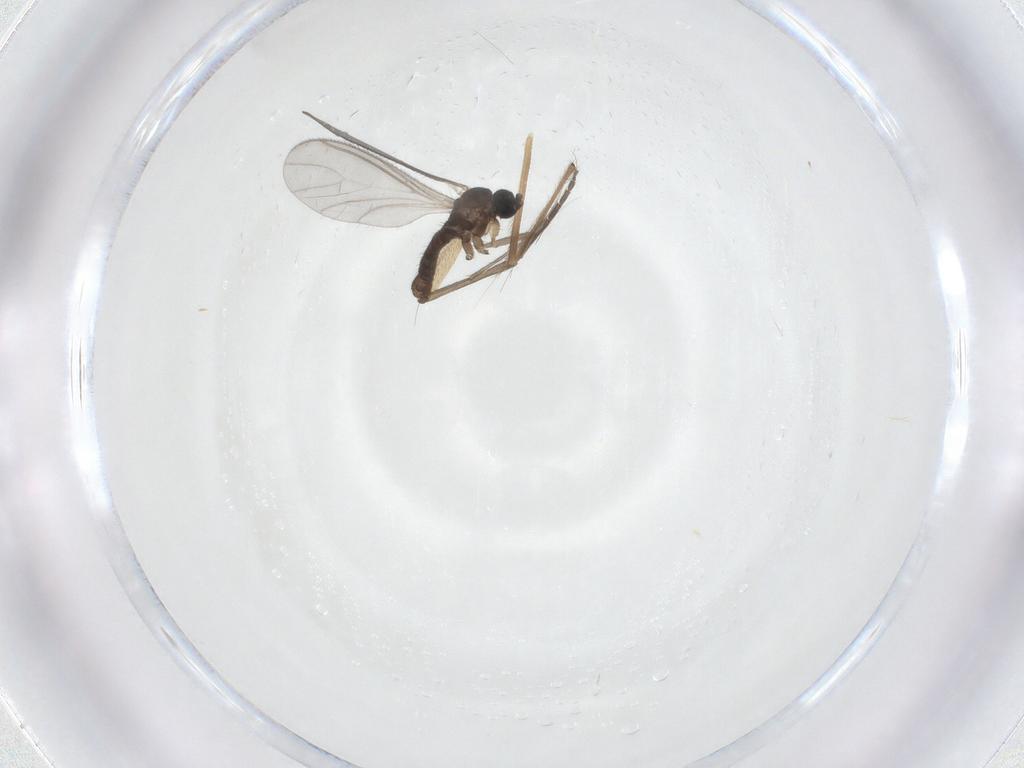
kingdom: Animalia
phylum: Arthropoda
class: Insecta
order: Diptera
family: Sciaridae
